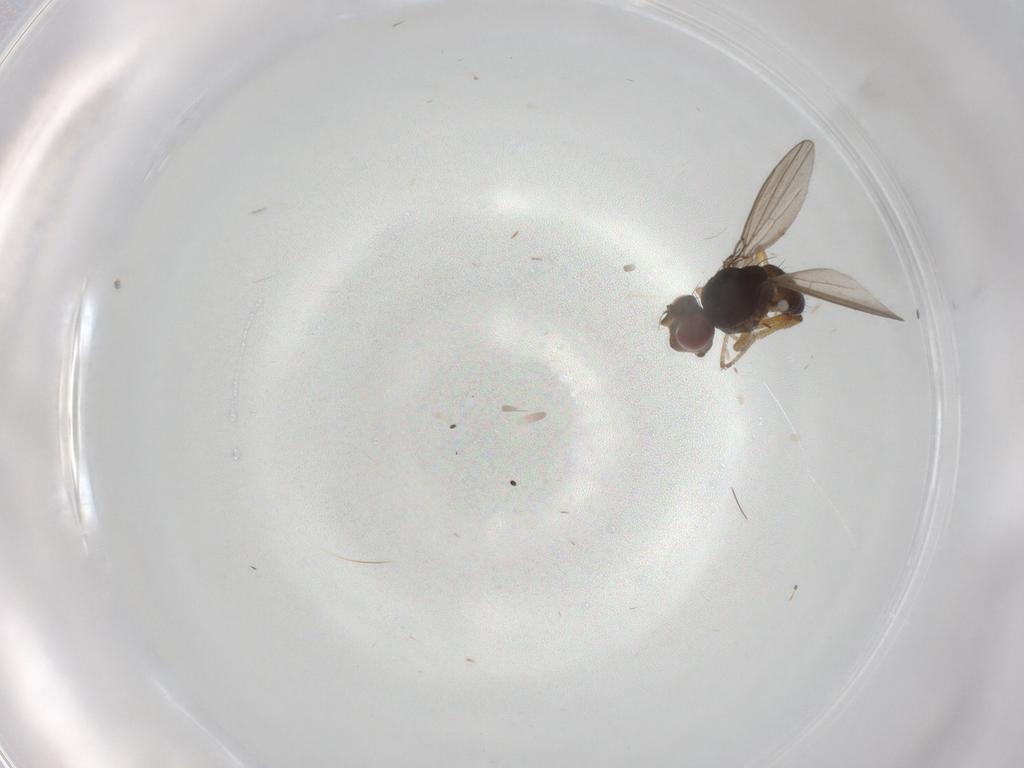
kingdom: Animalia
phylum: Arthropoda
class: Insecta
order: Diptera
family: Ephydridae
